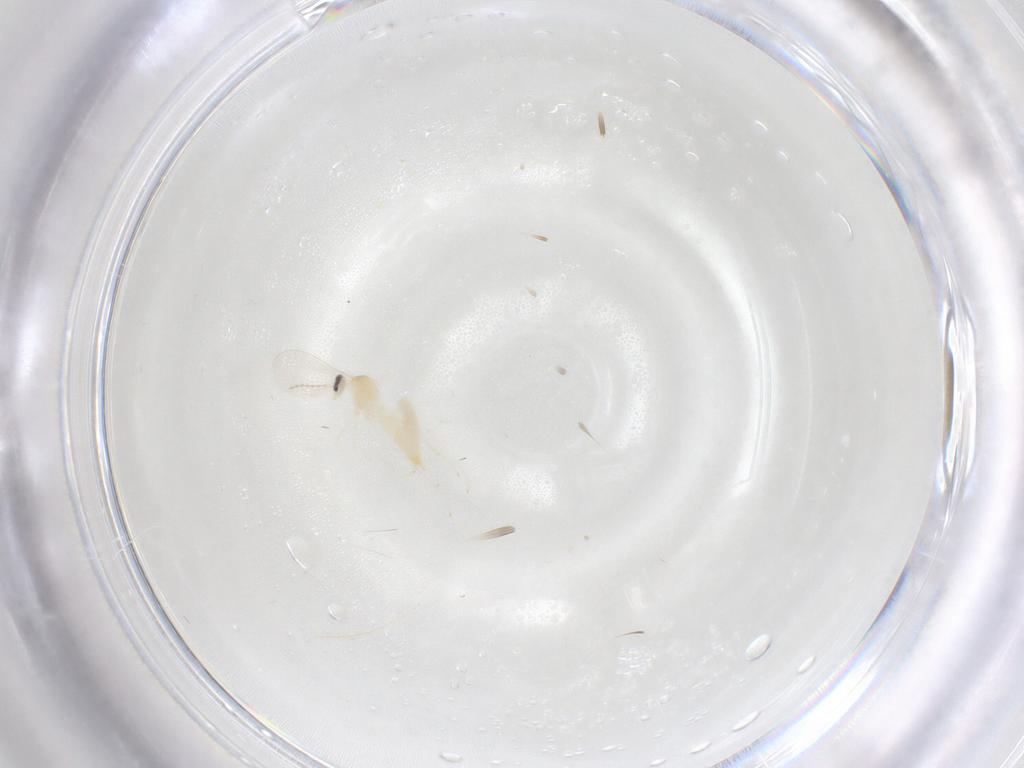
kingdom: Animalia
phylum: Arthropoda
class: Insecta
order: Diptera
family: Cecidomyiidae
